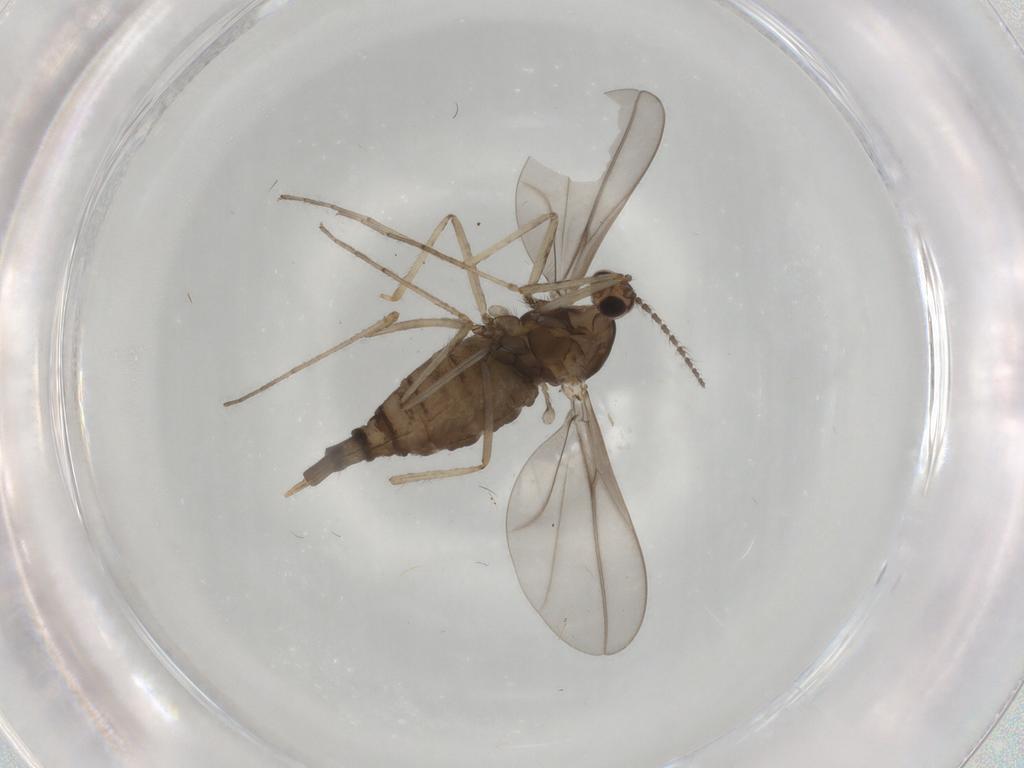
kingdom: Animalia
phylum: Arthropoda
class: Insecta
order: Diptera
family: Cecidomyiidae
